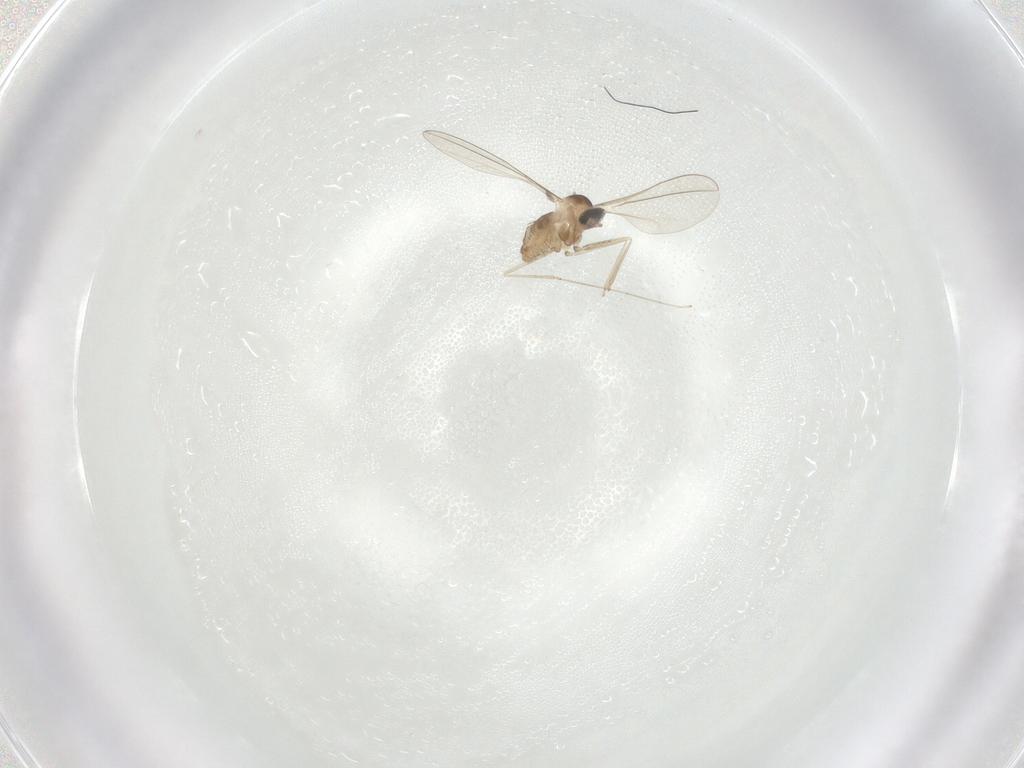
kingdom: Animalia
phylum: Arthropoda
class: Insecta
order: Diptera
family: Cecidomyiidae
